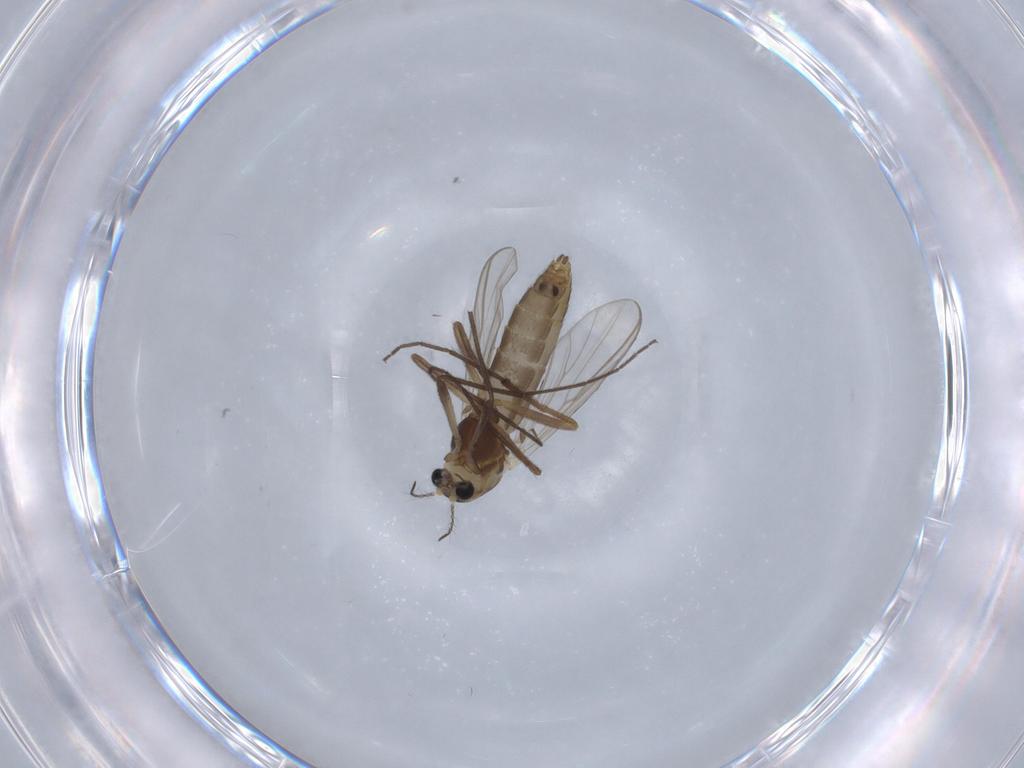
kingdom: Animalia
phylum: Arthropoda
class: Insecta
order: Diptera
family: Chironomidae
